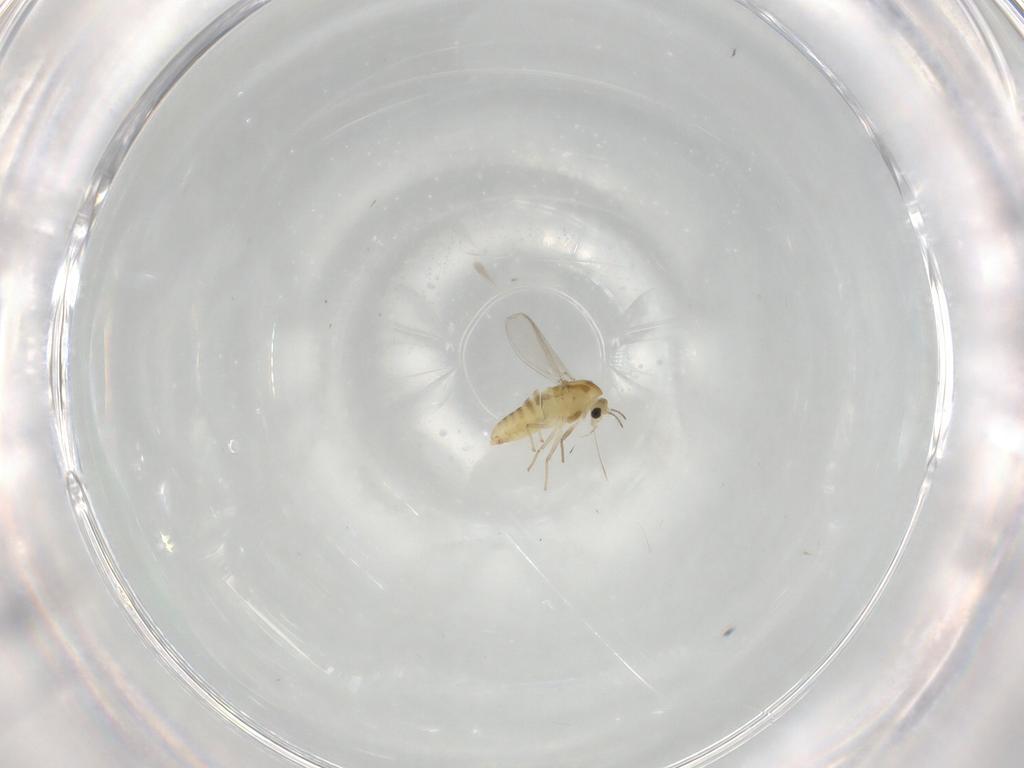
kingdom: Animalia
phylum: Arthropoda
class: Insecta
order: Diptera
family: Chironomidae
